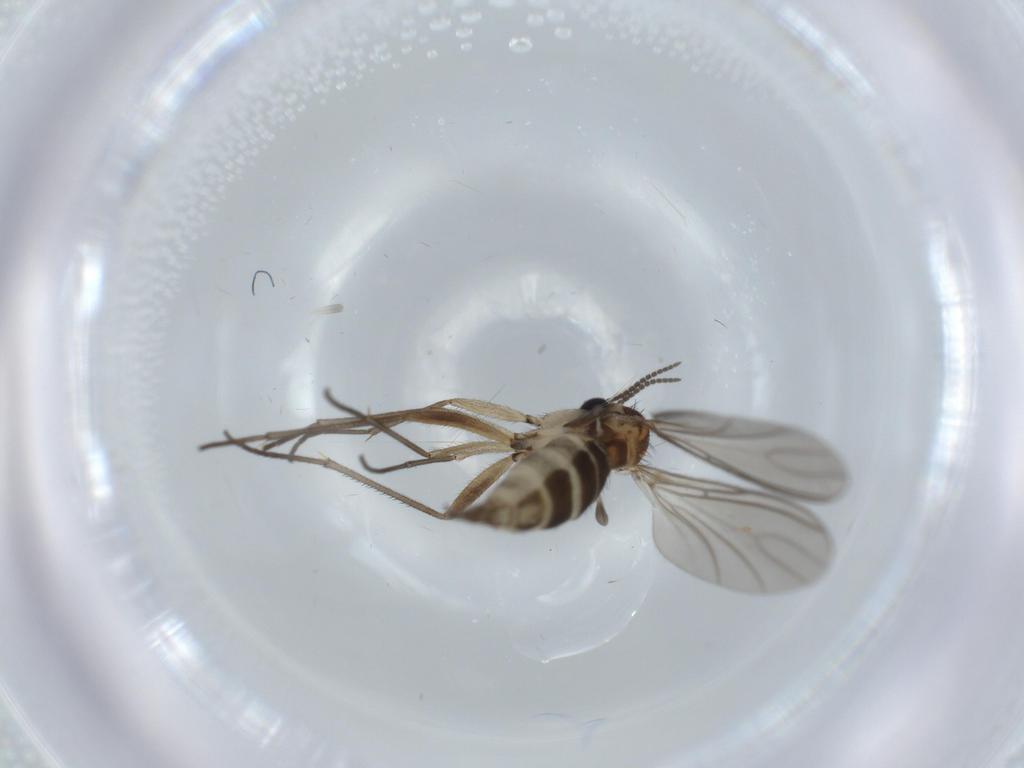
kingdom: Animalia
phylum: Arthropoda
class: Insecta
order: Diptera
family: Sciaridae
